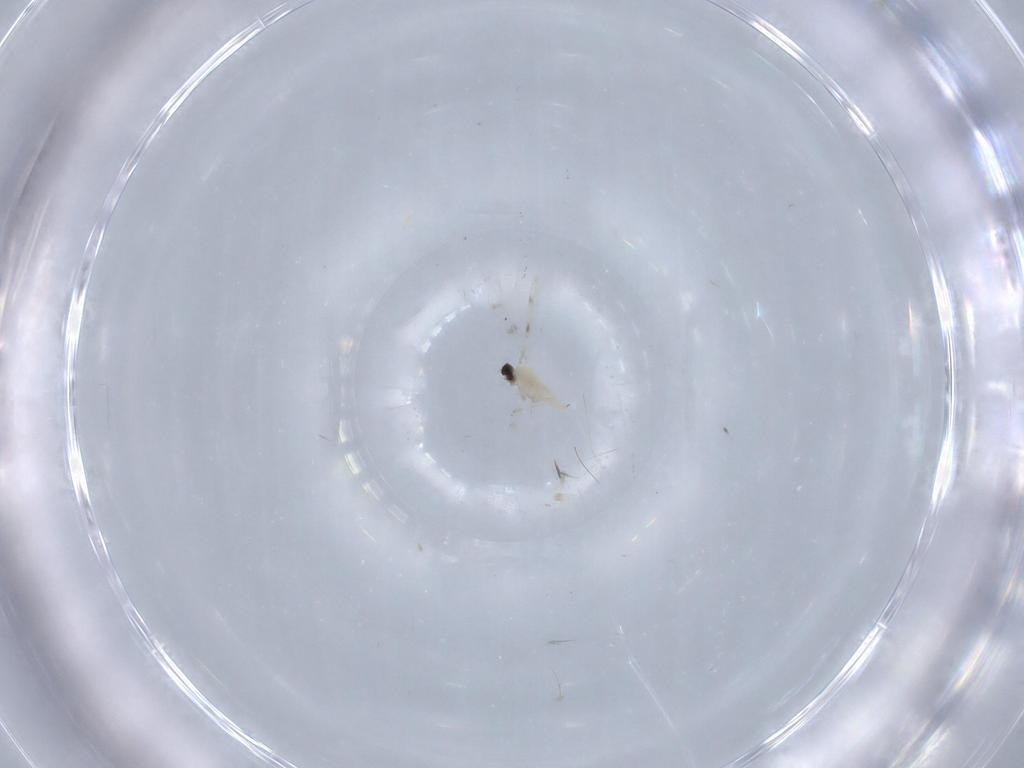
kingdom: Animalia
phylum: Arthropoda
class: Insecta
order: Diptera
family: Cecidomyiidae
